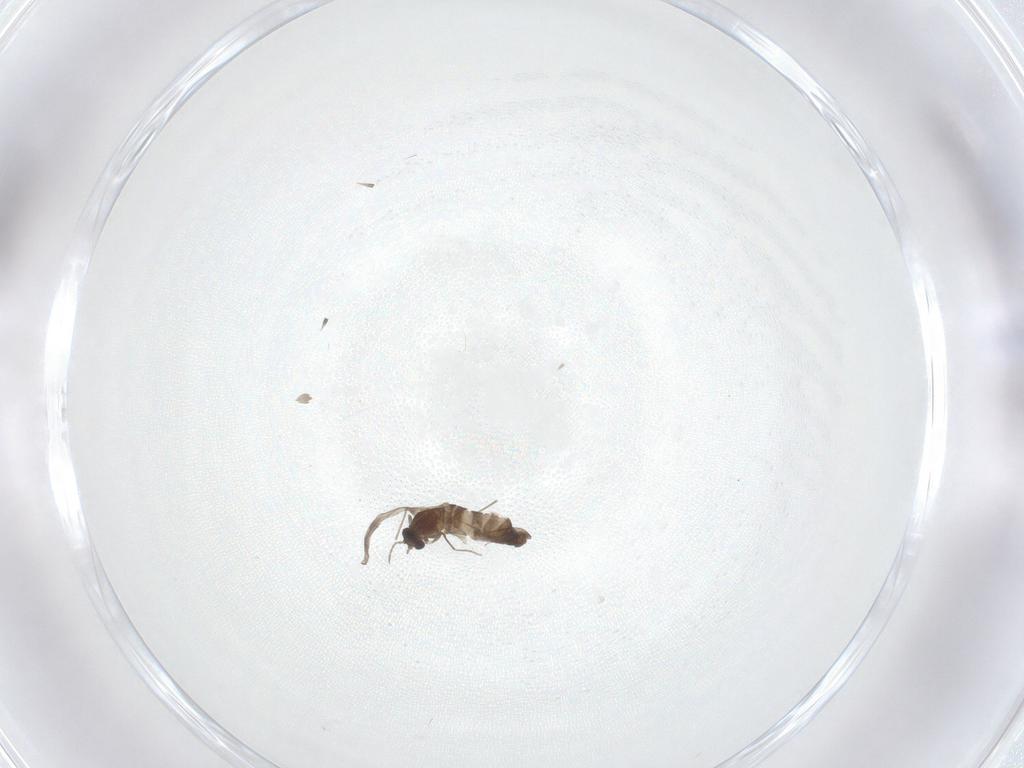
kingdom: Animalia
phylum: Arthropoda
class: Insecta
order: Diptera
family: Chironomidae
